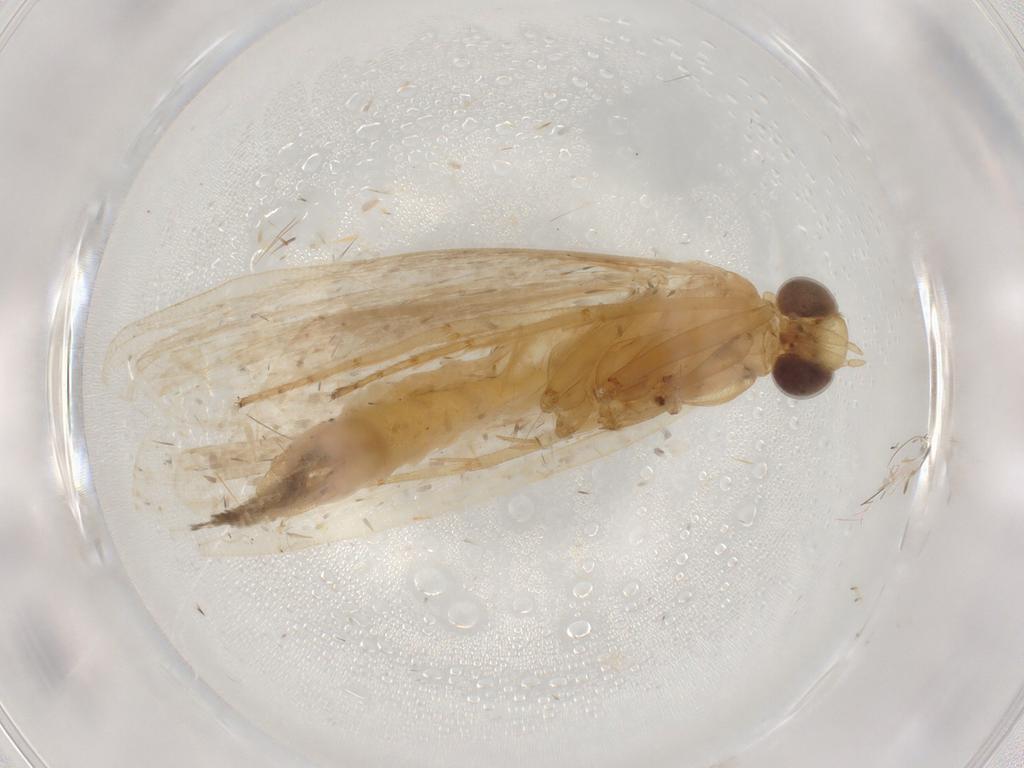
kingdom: Animalia
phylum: Arthropoda
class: Insecta
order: Lepidoptera
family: Pyralidae
